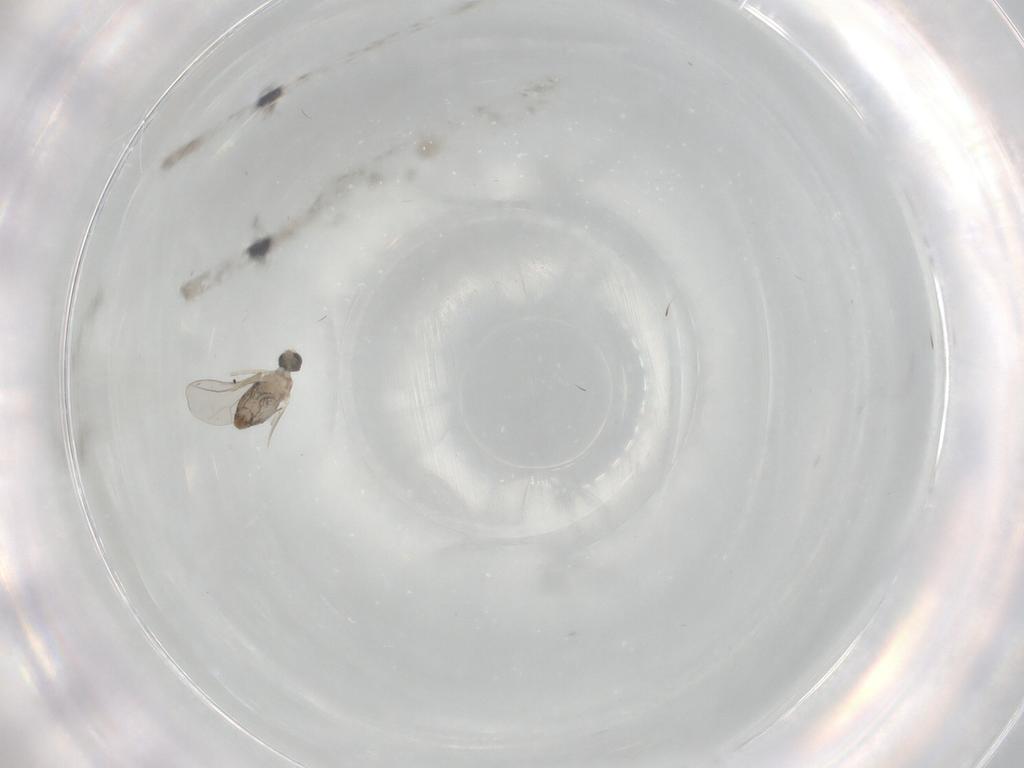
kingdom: Animalia
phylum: Arthropoda
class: Insecta
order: Diptera
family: Cecidomyiidae
